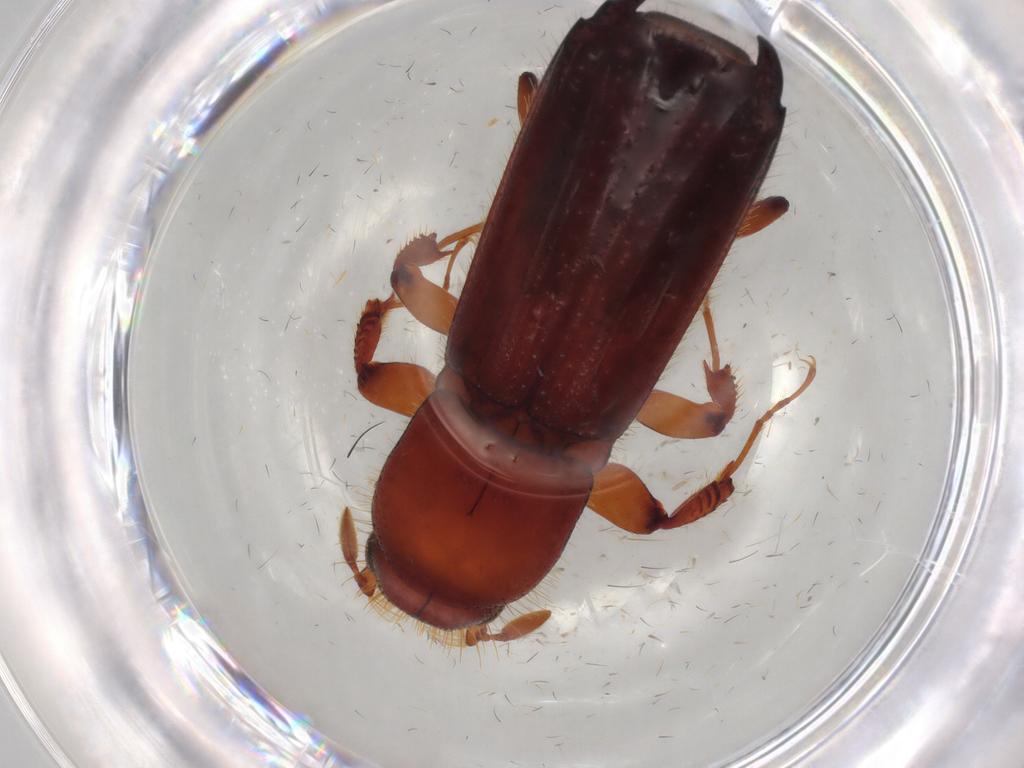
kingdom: Animalia
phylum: Arthropoda
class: Insecta
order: Coleoptera
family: Curculionidae
